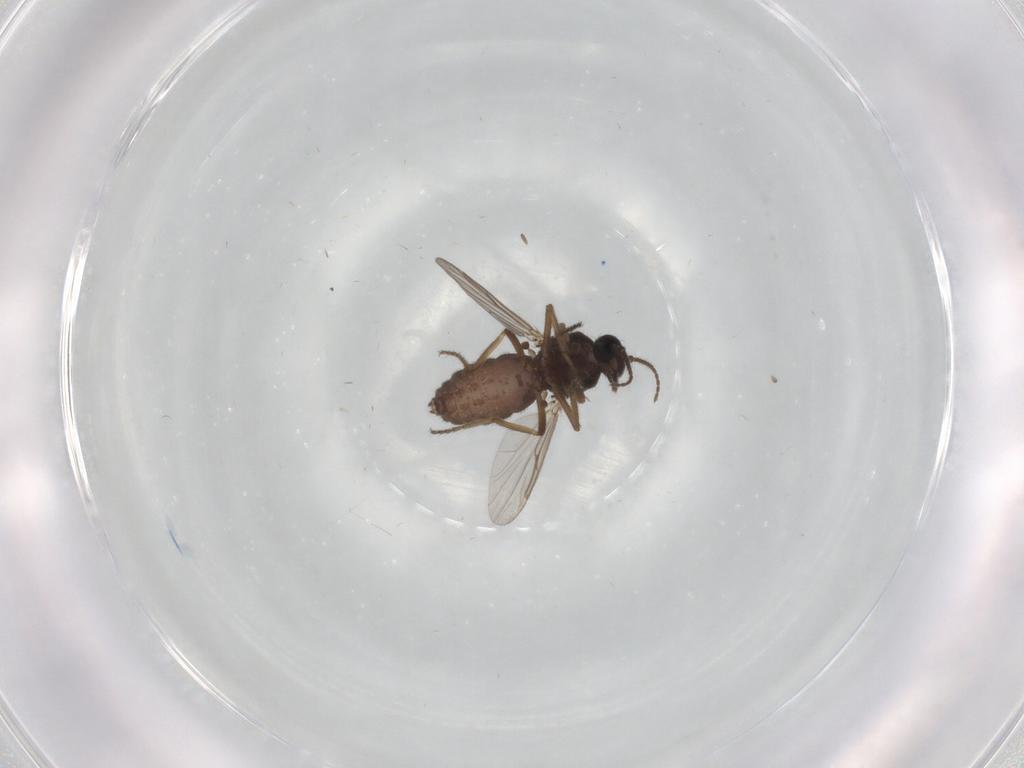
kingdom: Animalia
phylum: Arthropoda
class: Insecta
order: Diptera
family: Ceratopogonidae
